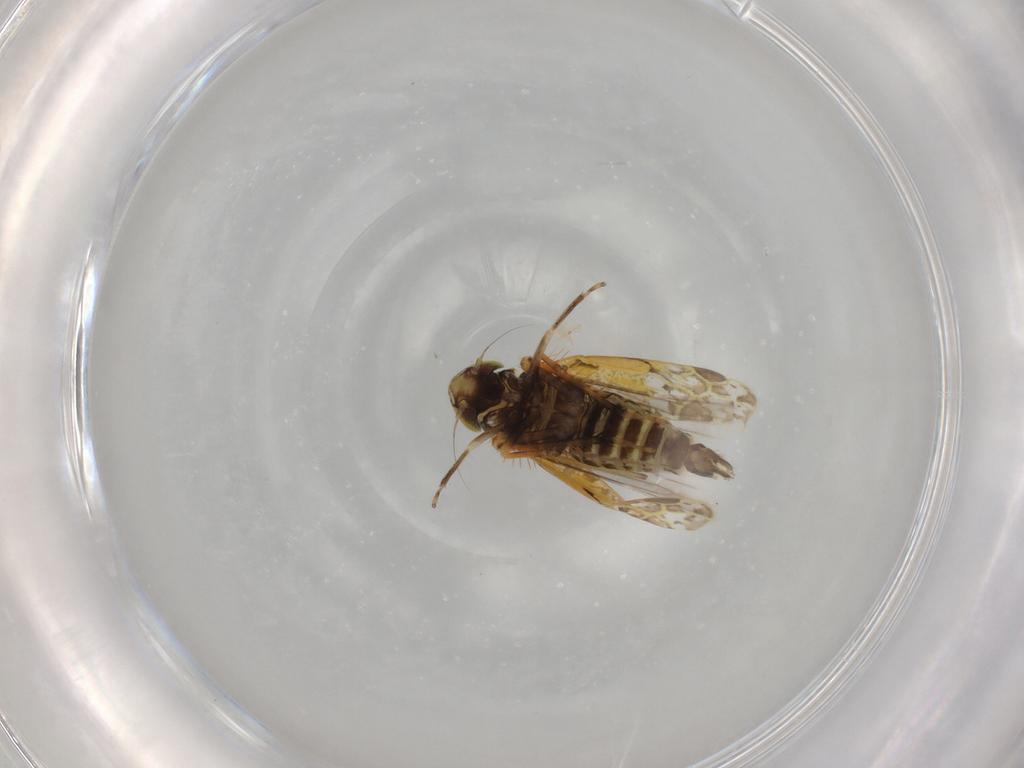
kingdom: Animalia
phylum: Arthropoda
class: Insecta
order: Hemiptera
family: Cicadellidae
